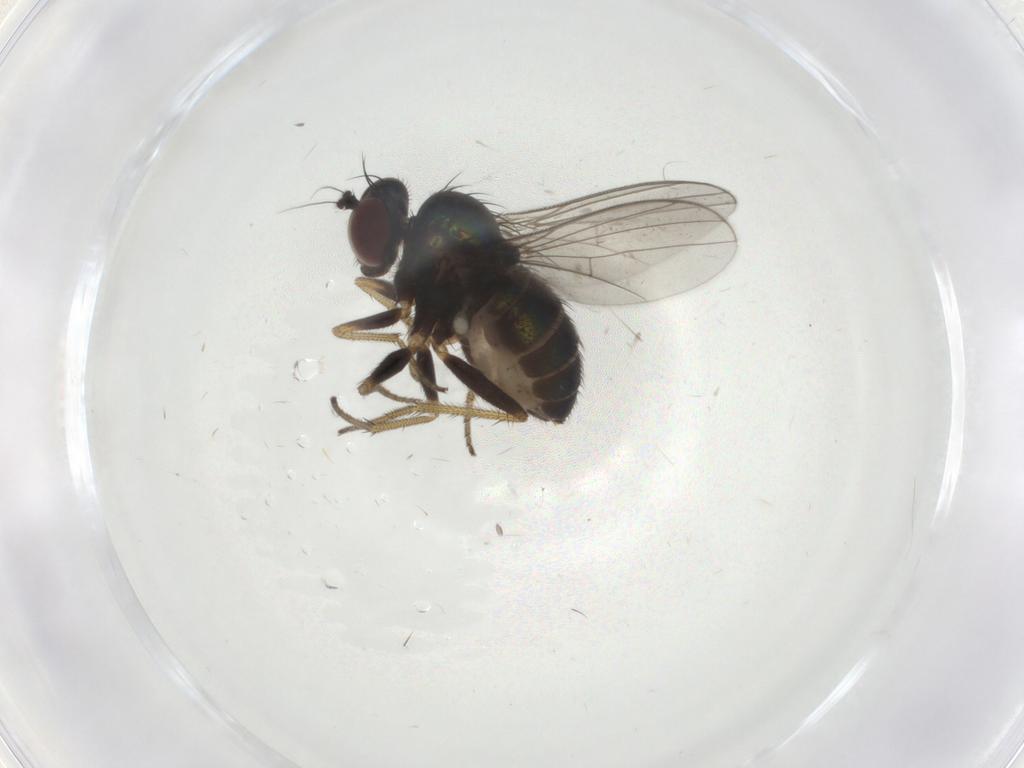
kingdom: Animalia
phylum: Arthropoda
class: Insecta
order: Diptera
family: Cecidomyiidae
